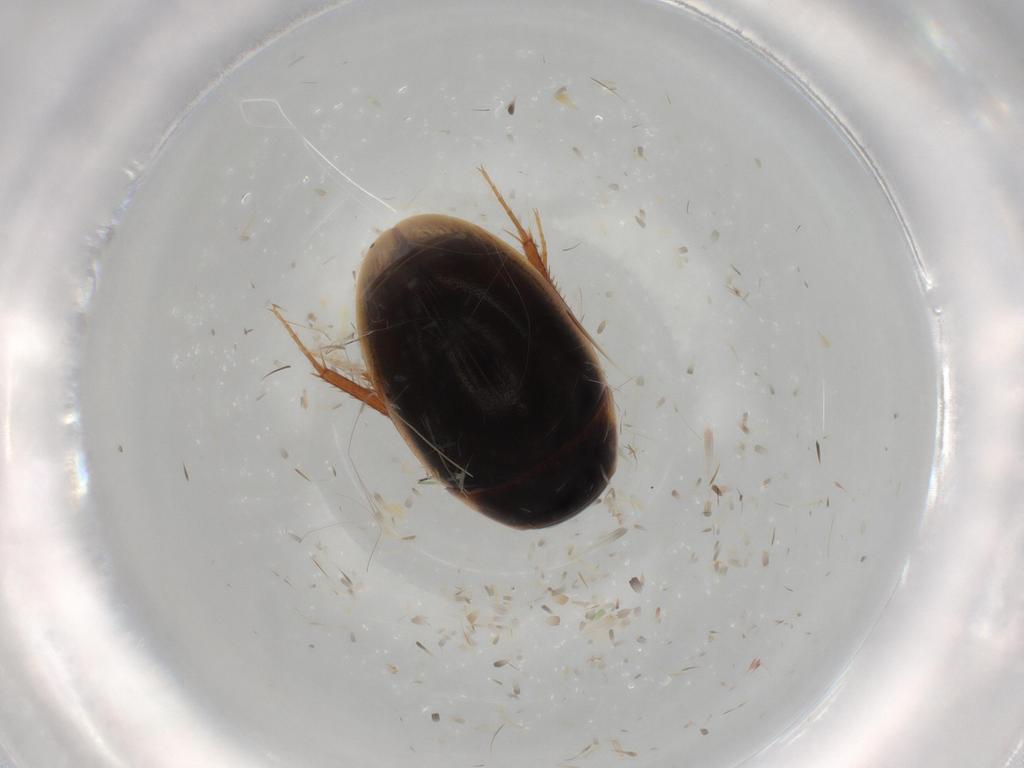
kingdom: Animalia
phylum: Arthropoda
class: Insecta
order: Coleoptera
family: Hydrophilidae
